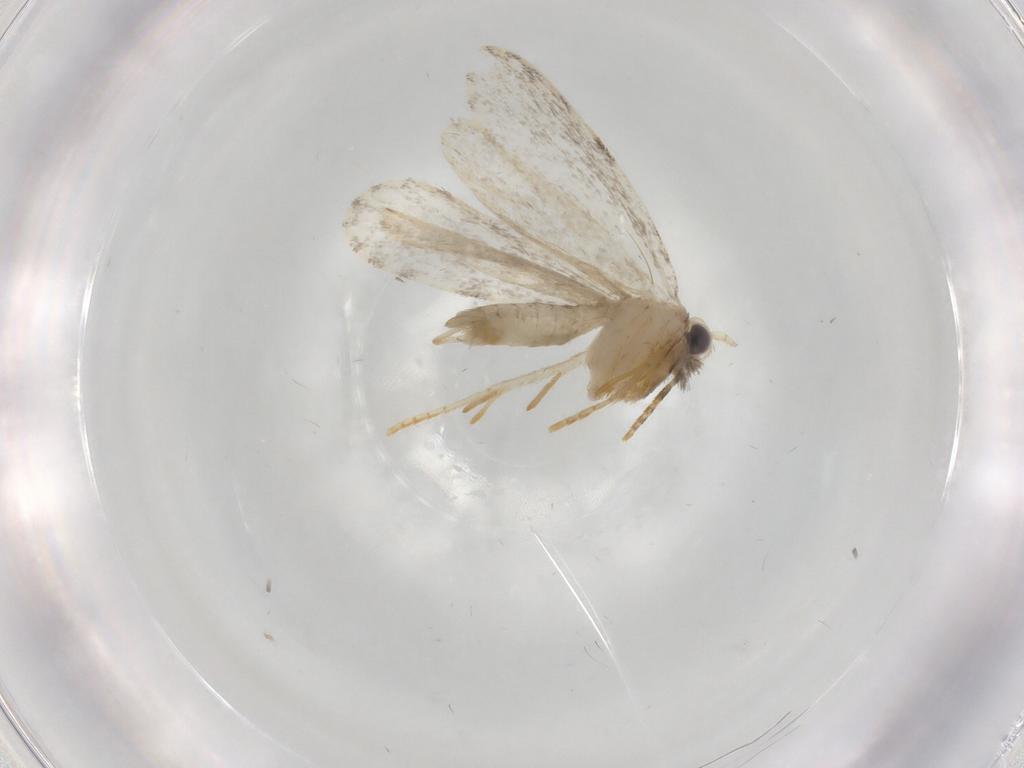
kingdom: Animalia
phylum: Arthropoda
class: Insecta
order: Lepidoptera
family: Psychidae
